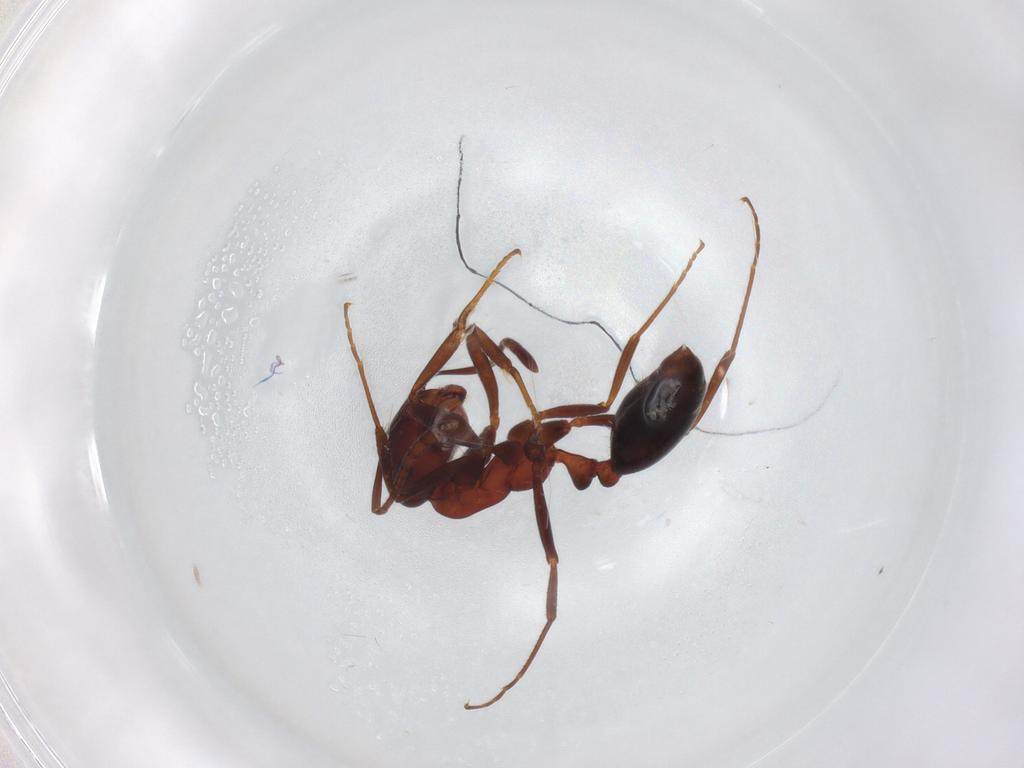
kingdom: Animalia
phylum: Arthropoda
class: Insecta
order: Hymenoptera
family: Formicidae
